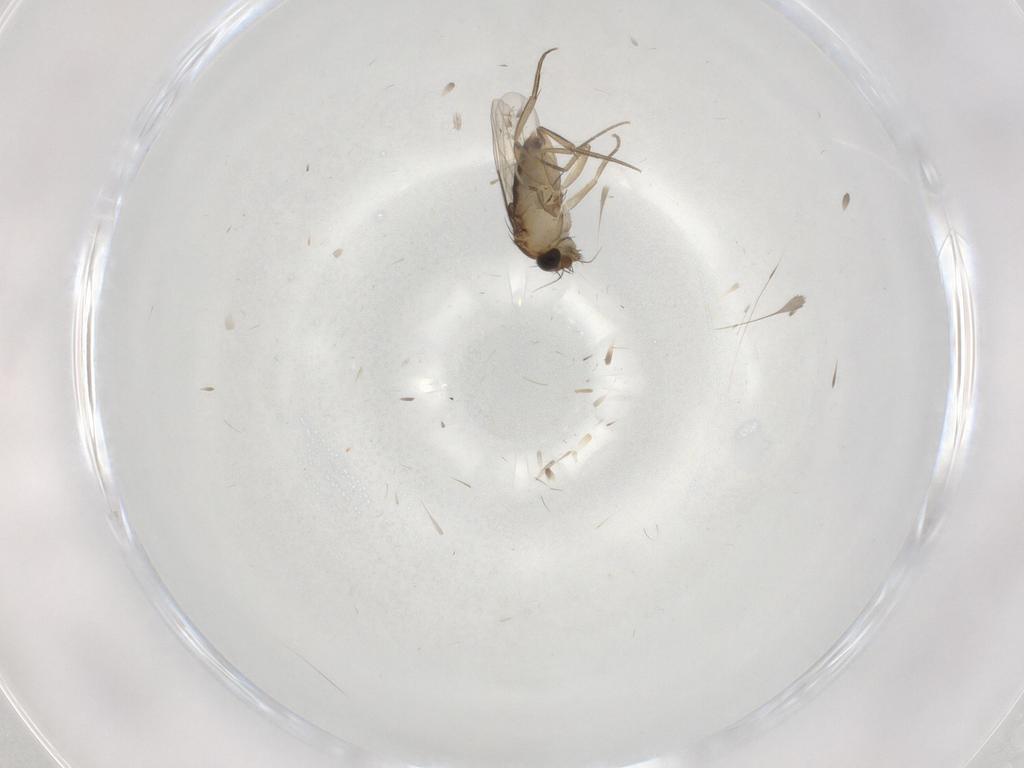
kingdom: Animalia
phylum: Arthropoda
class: Insecta
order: Diptera
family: Phoridae
